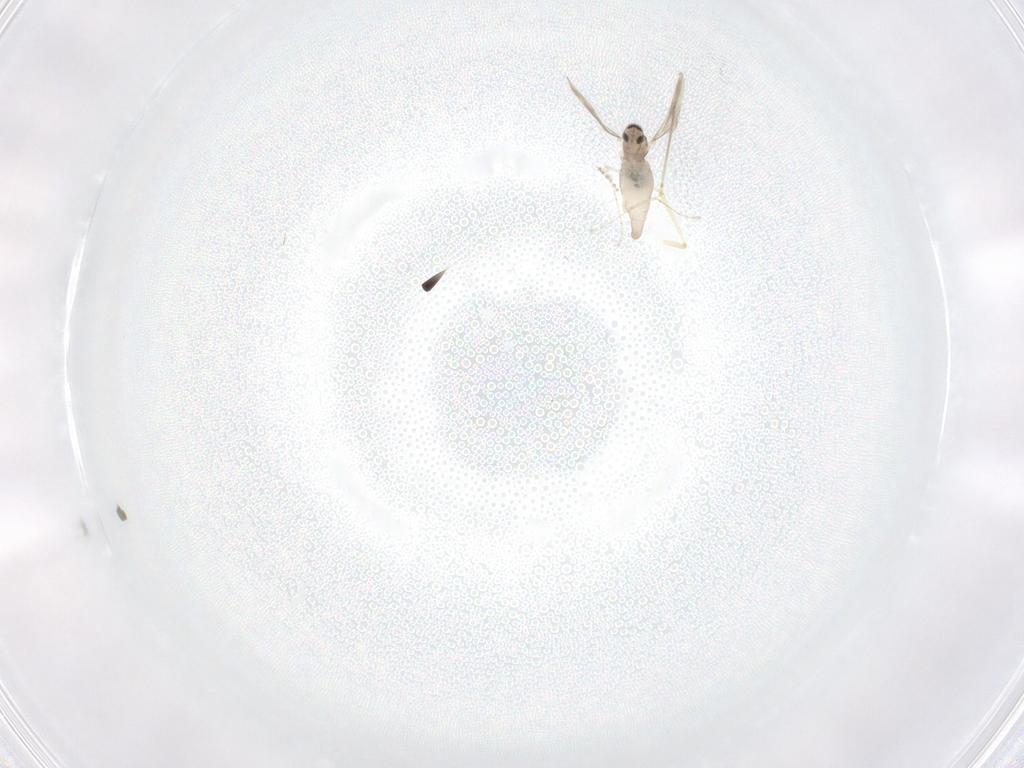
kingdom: Animalia
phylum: Arthropoda
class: Insecta
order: Diptera
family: Cecidomyiidae
